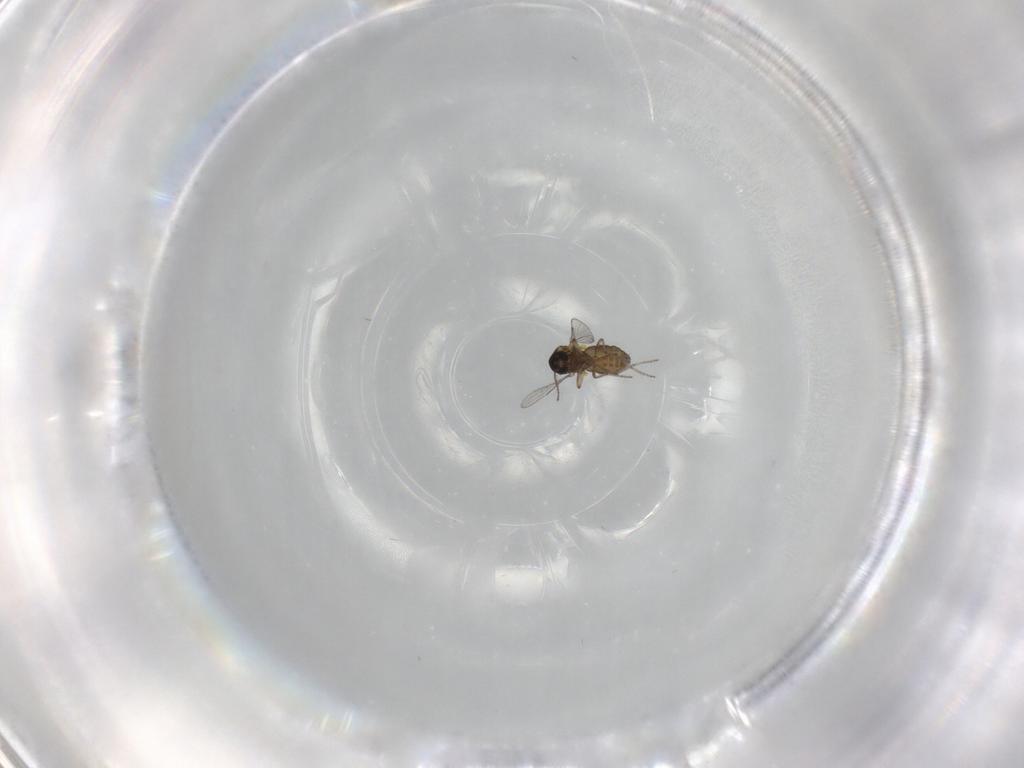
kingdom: Animalia
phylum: Arthropoda
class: Insecta
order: Diptera
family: Ceratopogonidae
